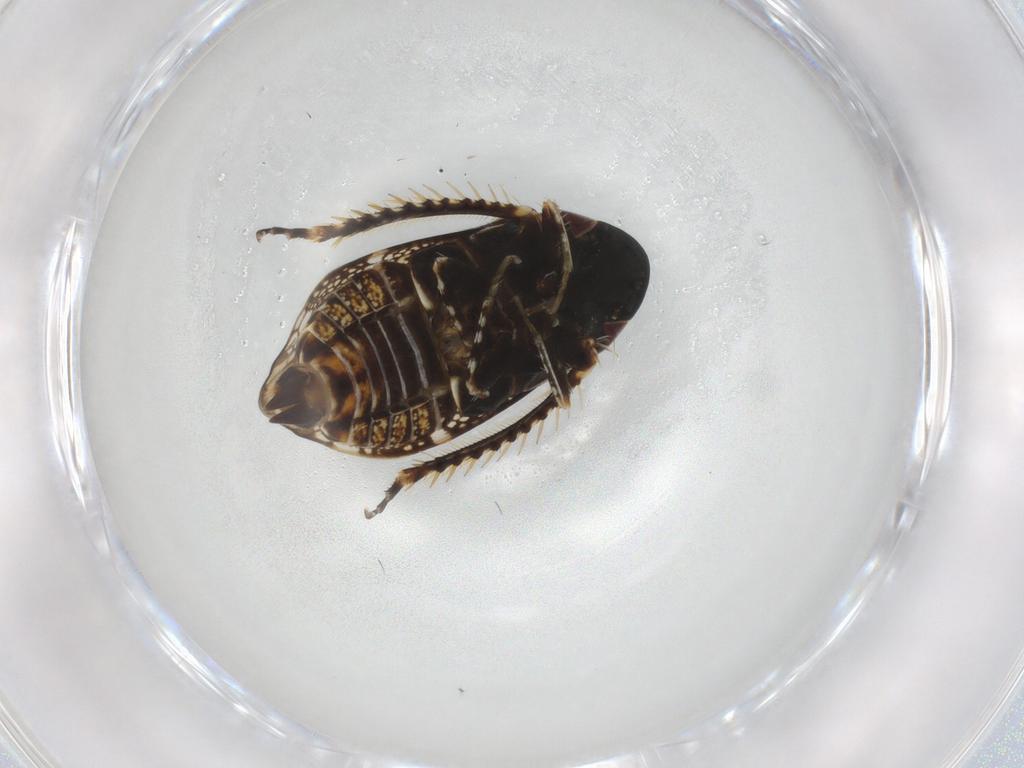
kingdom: Animalia
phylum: Arthropoda
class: Insecta
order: Hemiptera
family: Cicadellidae
